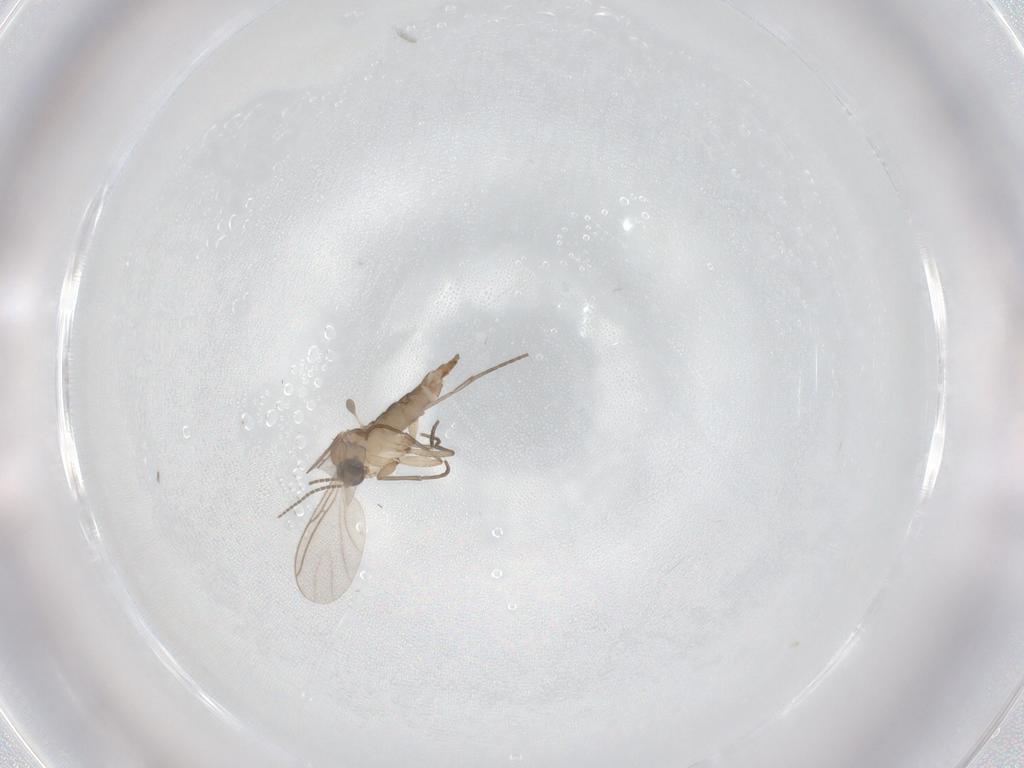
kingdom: Animalia
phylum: Arthropoda
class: Insecta
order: Diptera
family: Sciaridae
